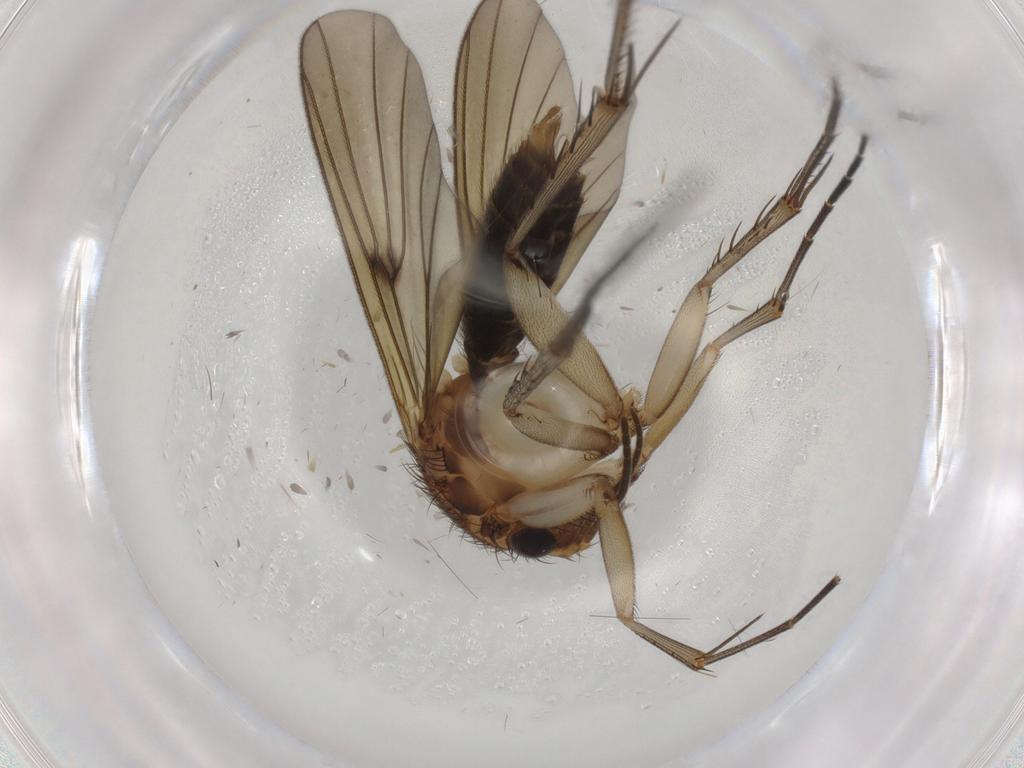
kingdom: Animalia
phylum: Arthropoda
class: Insecta
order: Diptera
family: Mycetophilidae
